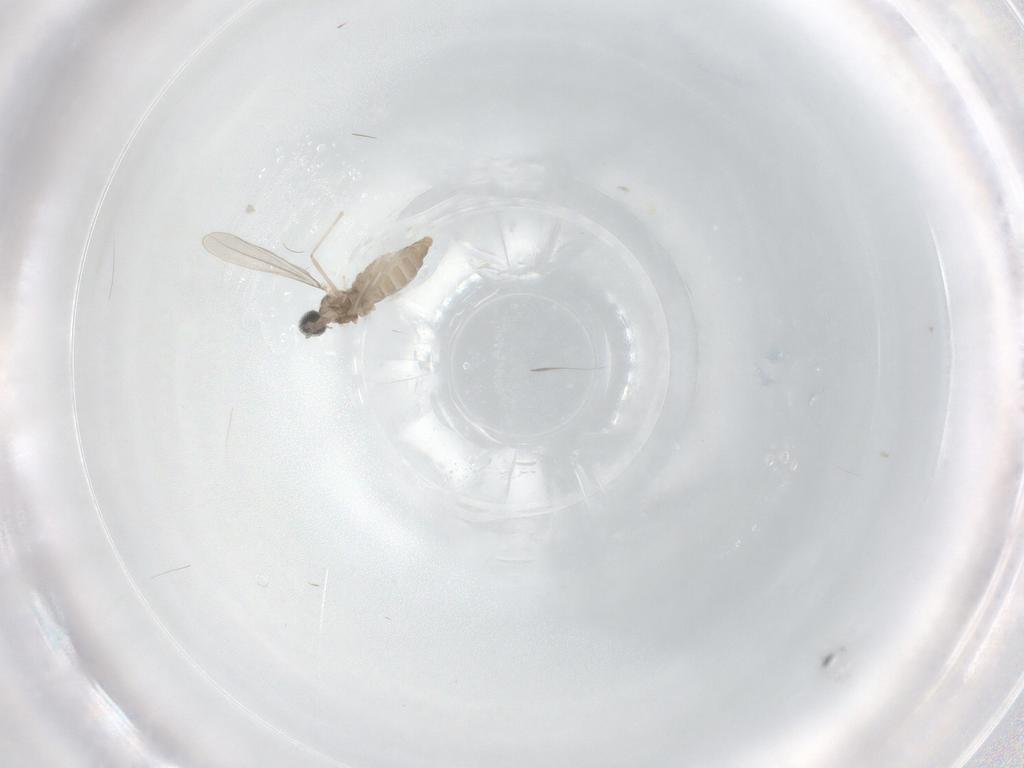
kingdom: Animalia
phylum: Arthropoda
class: Insecta
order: Diptera
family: Cecidomyiidae
